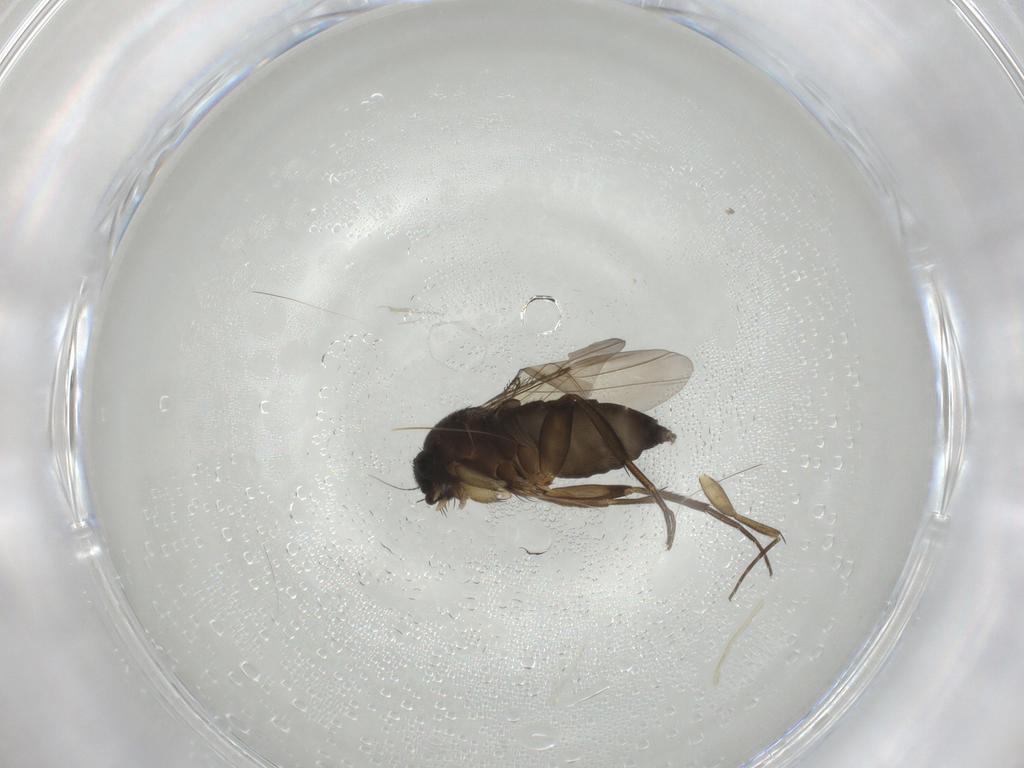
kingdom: Animalia
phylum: Arthropoda
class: Insecta
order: Diptera
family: Phoridae
